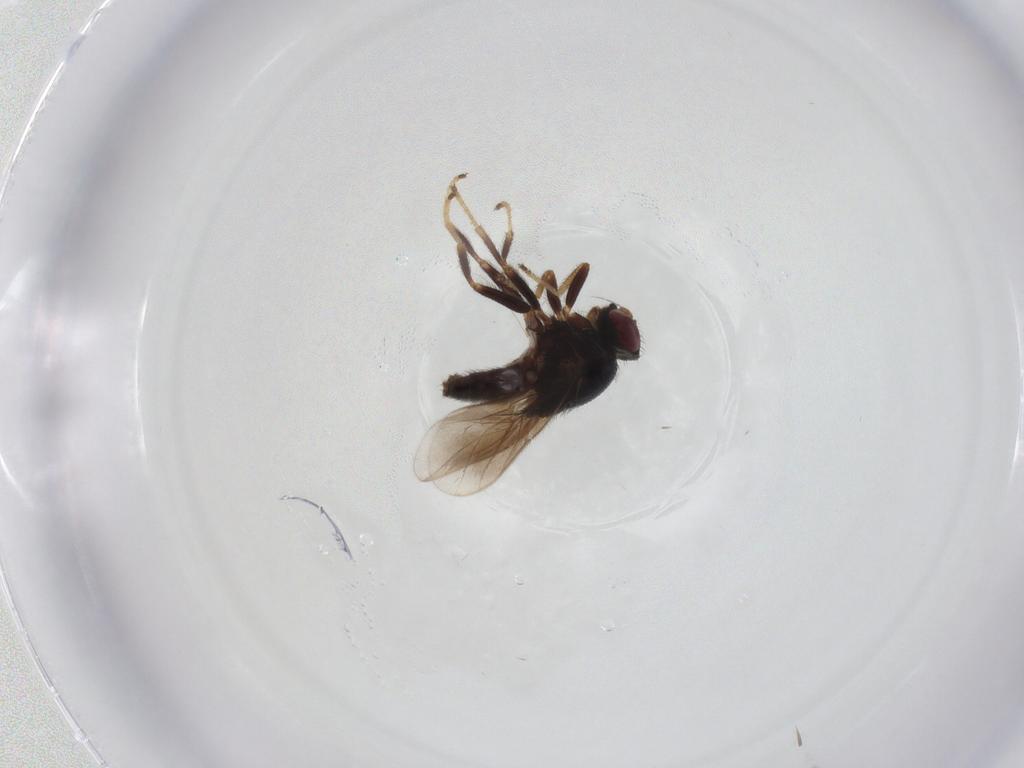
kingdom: Animalia
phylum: Arthropoda
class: Insecta
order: Diptera
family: Chloropidae
